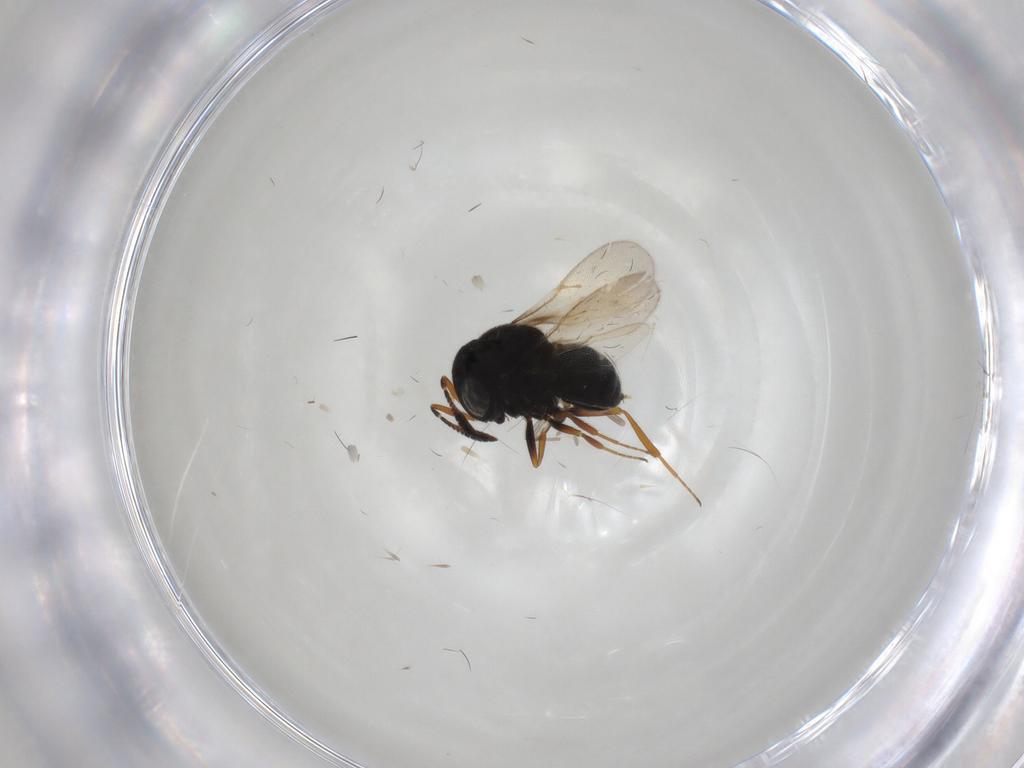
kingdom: Animalia
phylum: Arthropoda
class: Insecta
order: Hymenoptera
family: Scelionidae
